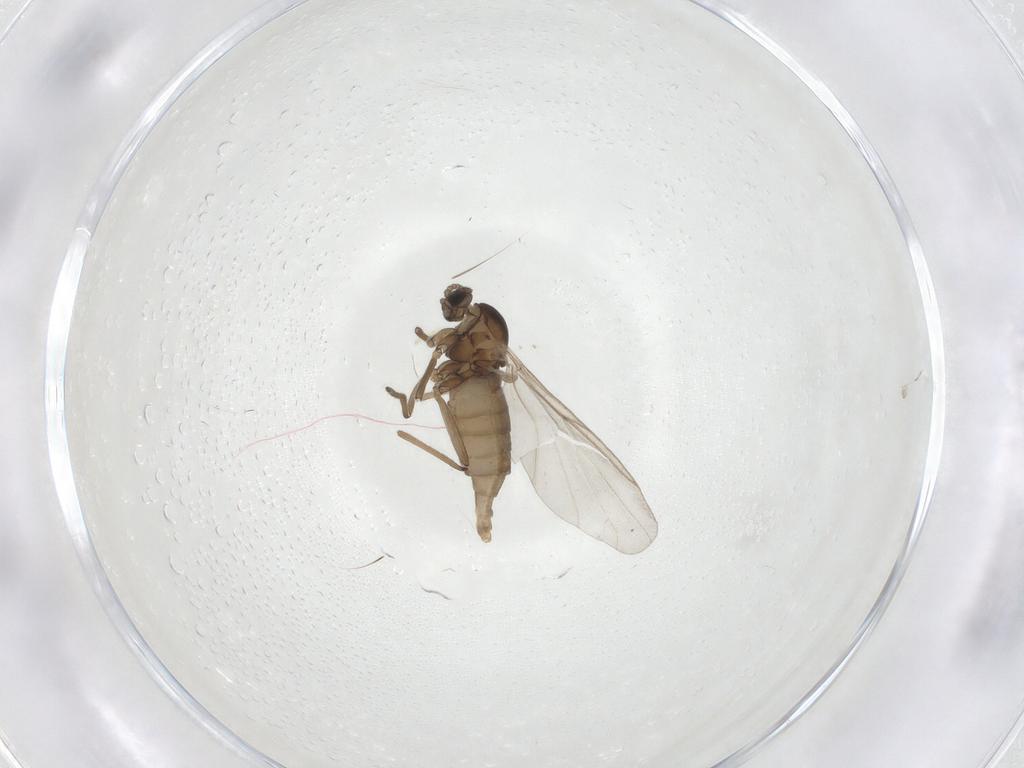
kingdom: Animalia
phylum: Arthropoda
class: Insecta
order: Diptera
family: Cecidomyiidae
